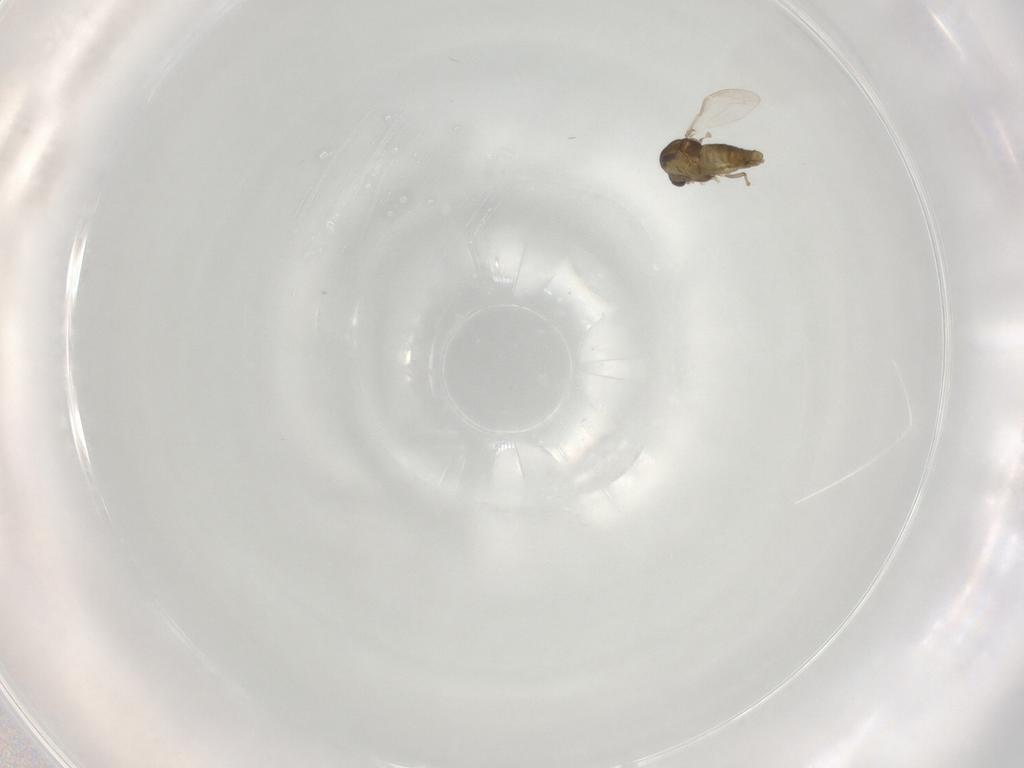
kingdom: Animalia
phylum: Arthropoda
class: Insecta
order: Diptera
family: Chironomidae
